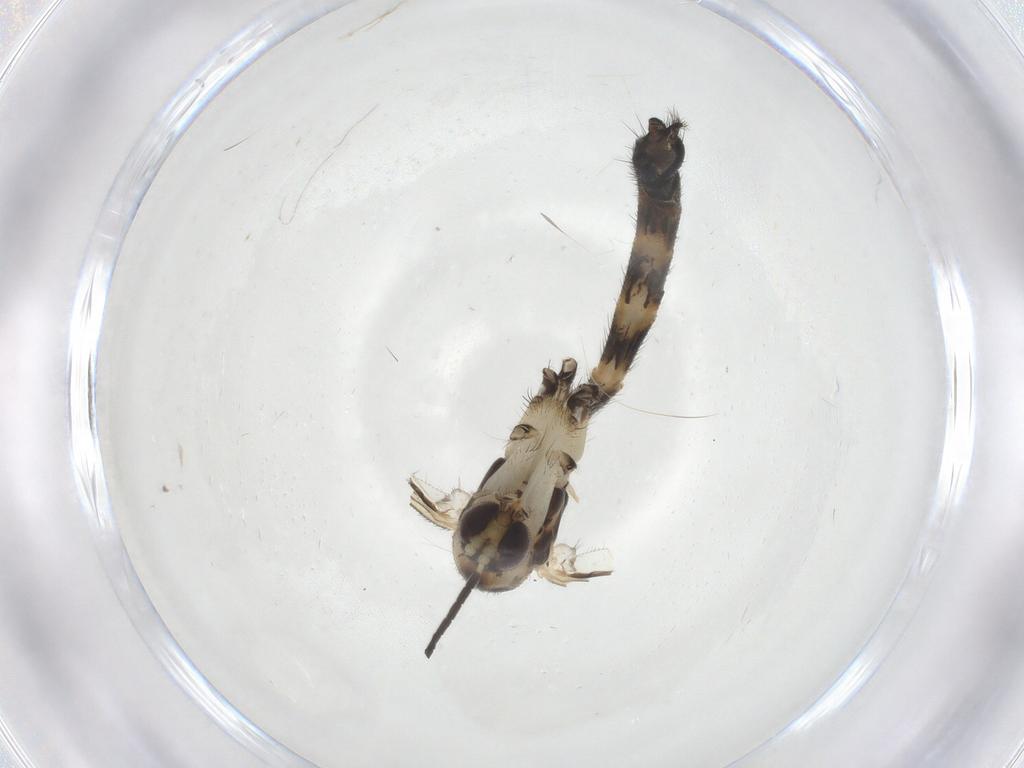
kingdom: Animalia
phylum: Arthropoda
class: Insecta
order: Diptera
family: Mycetophilidae
